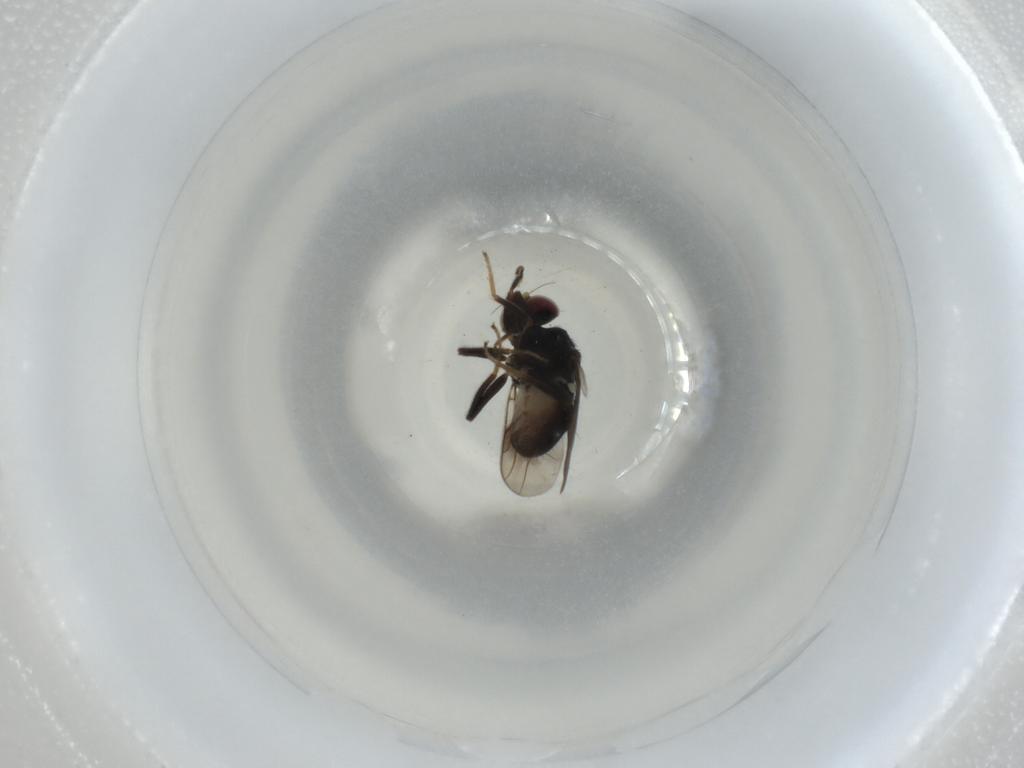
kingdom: Animalia
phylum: Arthropoda
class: Insecta
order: Diptera
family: Chloropidae
